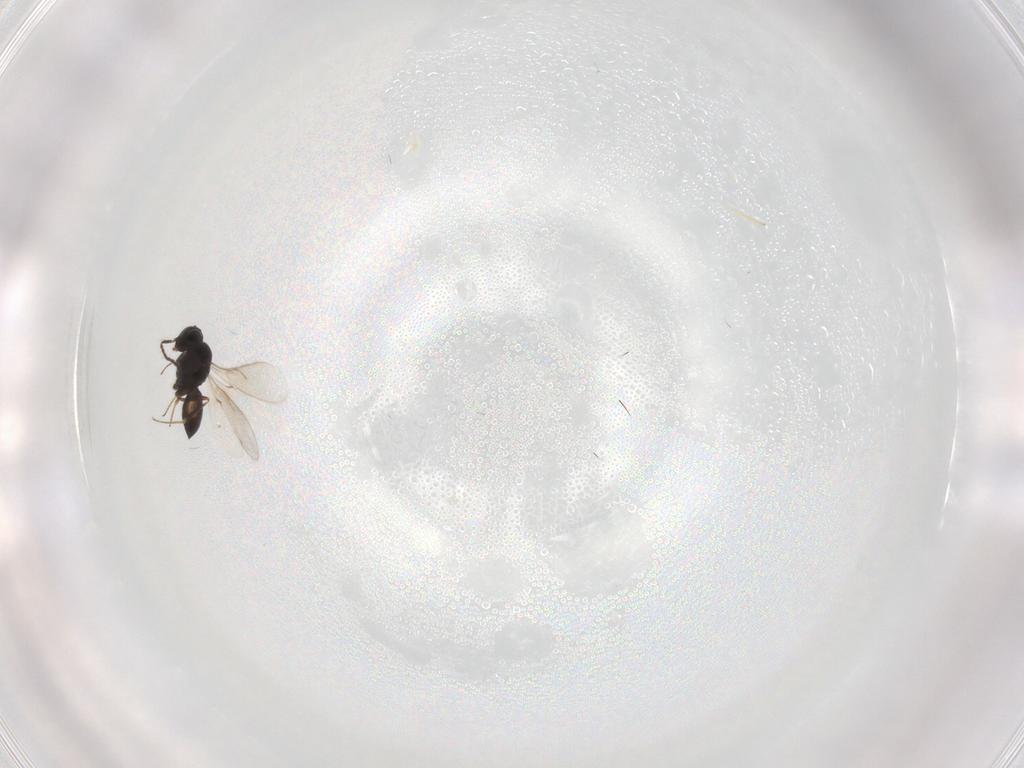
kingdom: Animalia
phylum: Arthropoda
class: Insecta
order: Hymenoptera
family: Scelionidae
